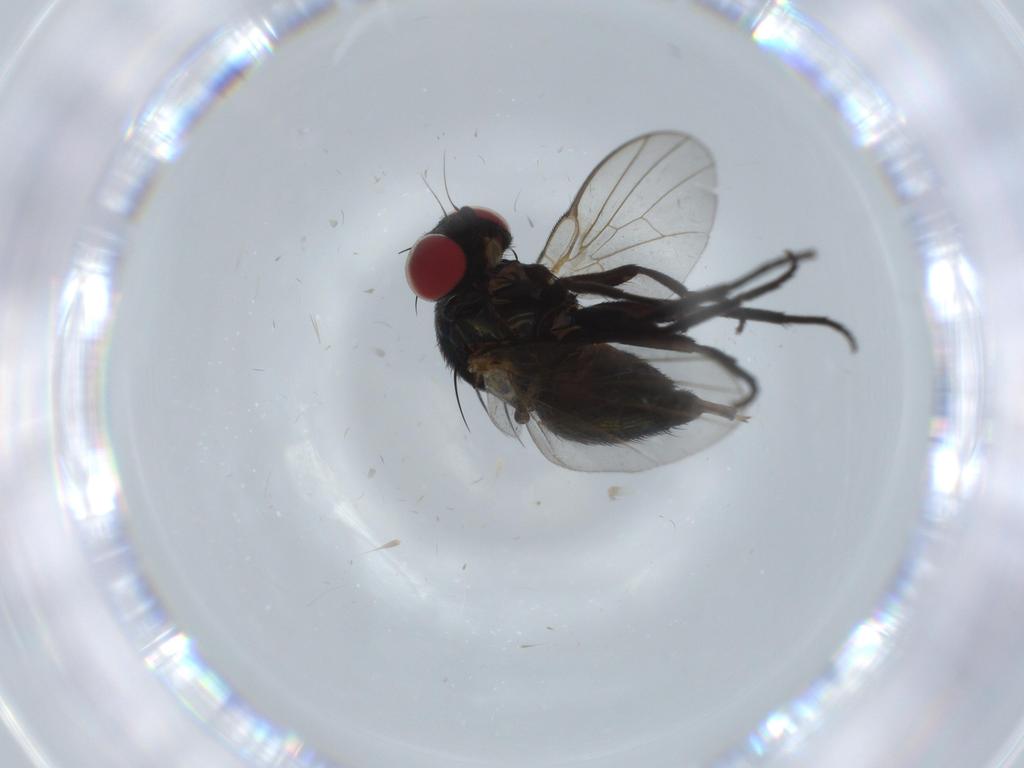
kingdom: Animalia
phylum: Arthropoda
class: Insecta
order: Diptera
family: Agromyzidae
